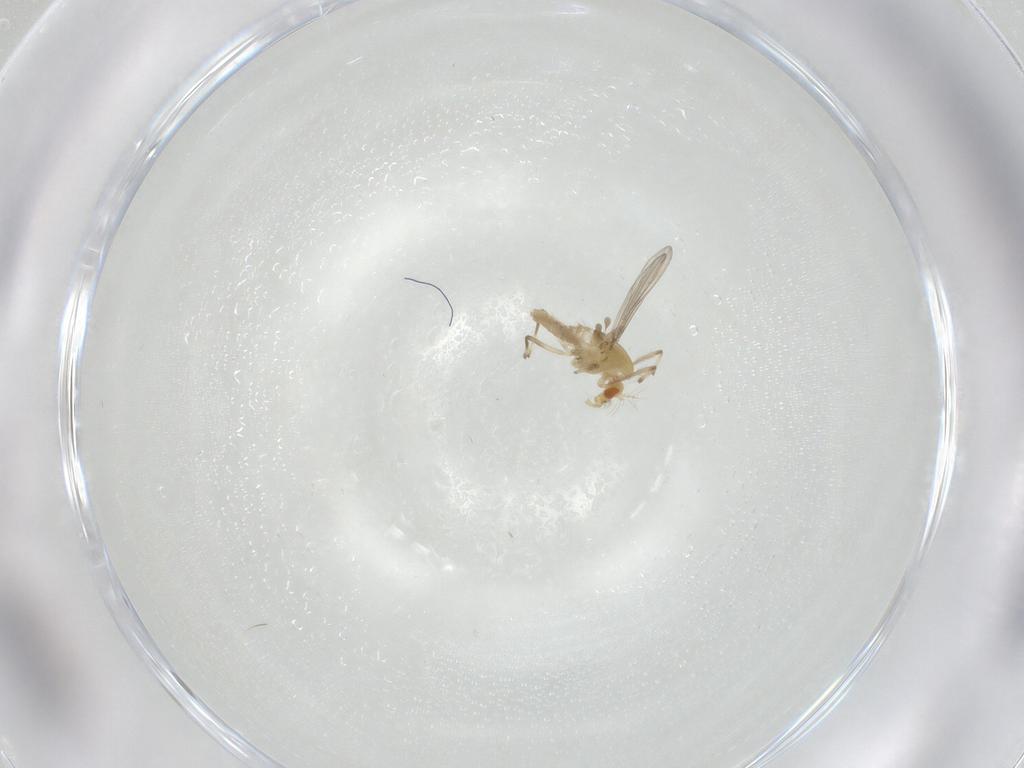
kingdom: Animalia
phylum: Arthropoda
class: Insecta
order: Diptera
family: Chironomidae
